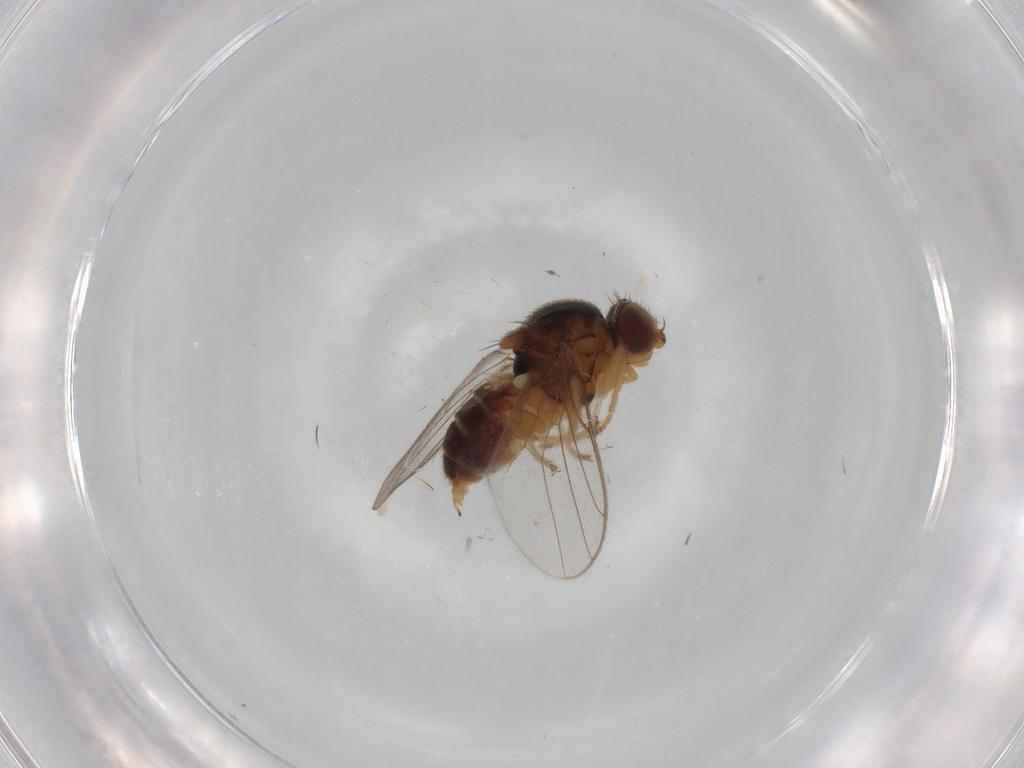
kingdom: Animalia
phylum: Arthropoda
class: Insecta
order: Diptera
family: Chloropidae
